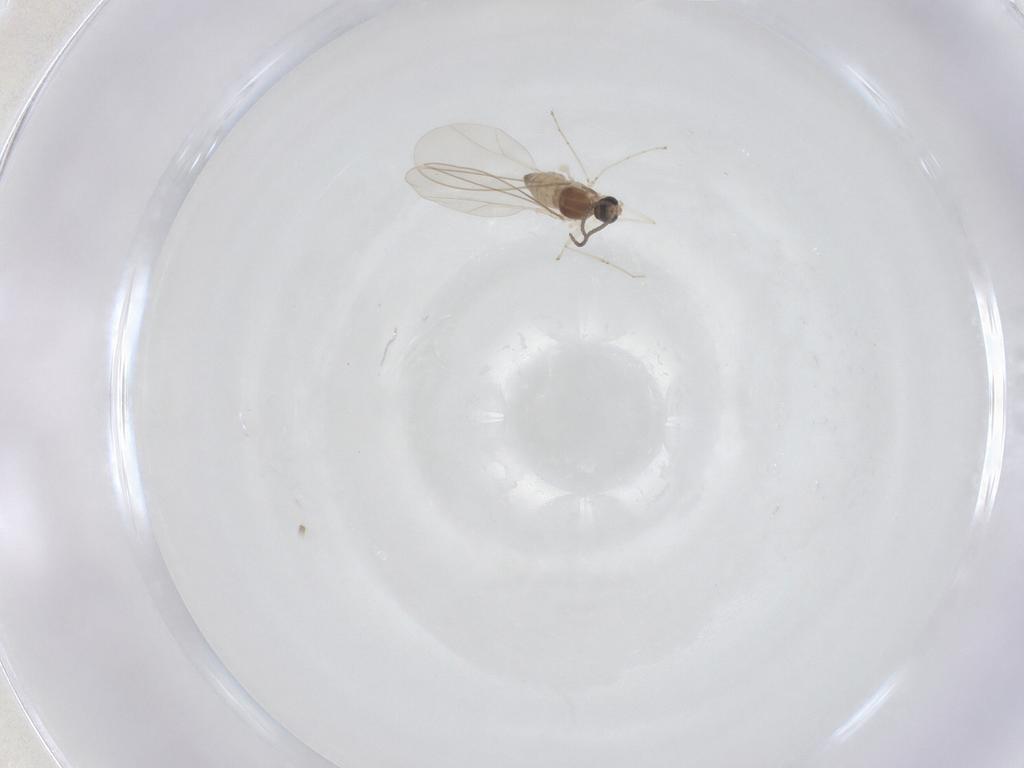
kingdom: Animalia
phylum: Arthropoda
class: Insecta
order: Diptera
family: Cecidomyiidae
